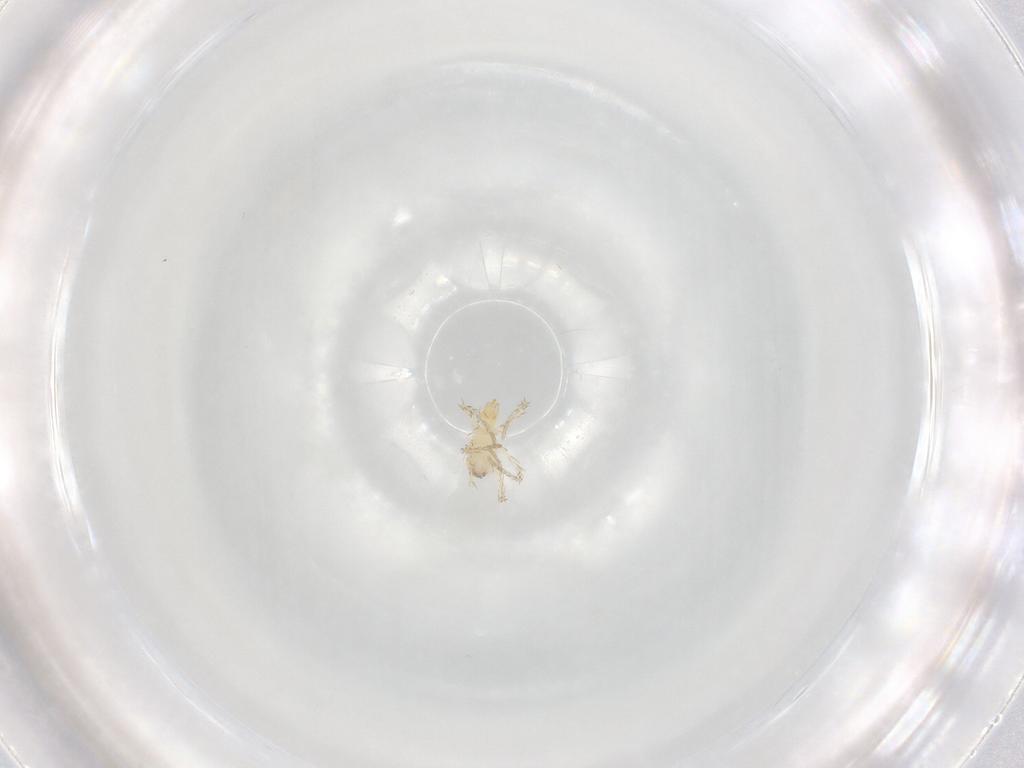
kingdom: Animalia
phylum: Arthropoda
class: Arachnida
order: Trombidiformes
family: Erythraeidae
